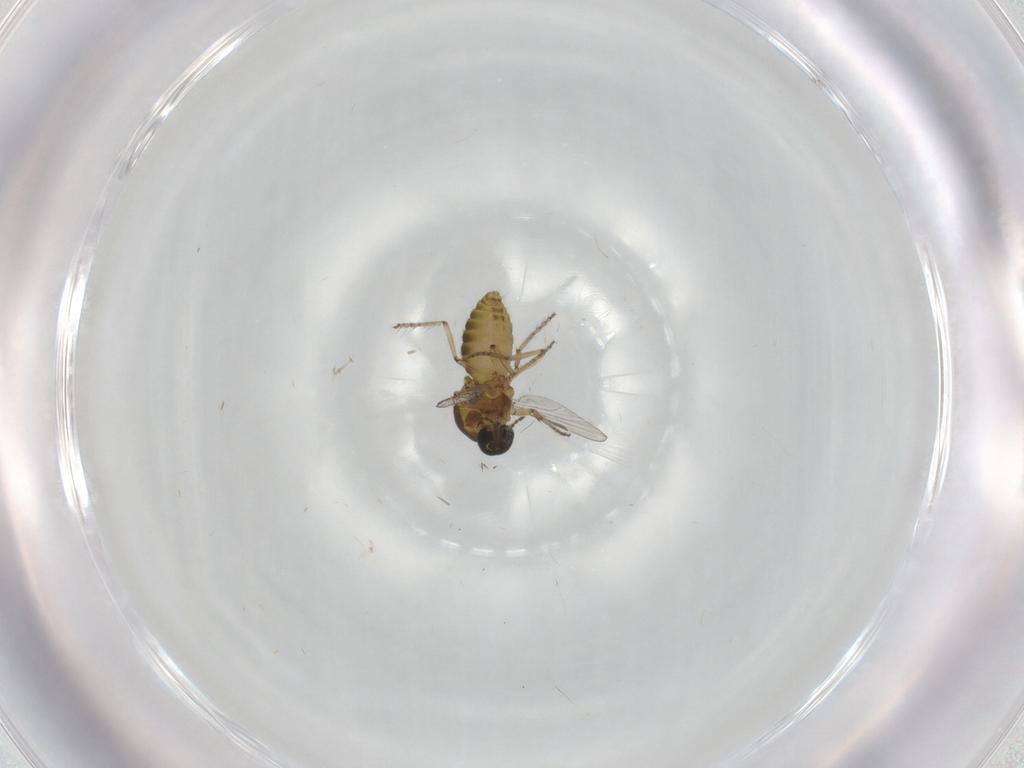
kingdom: Animalia
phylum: Arthropoda
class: Insecta
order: Diptera
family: Ceratopogonidae
